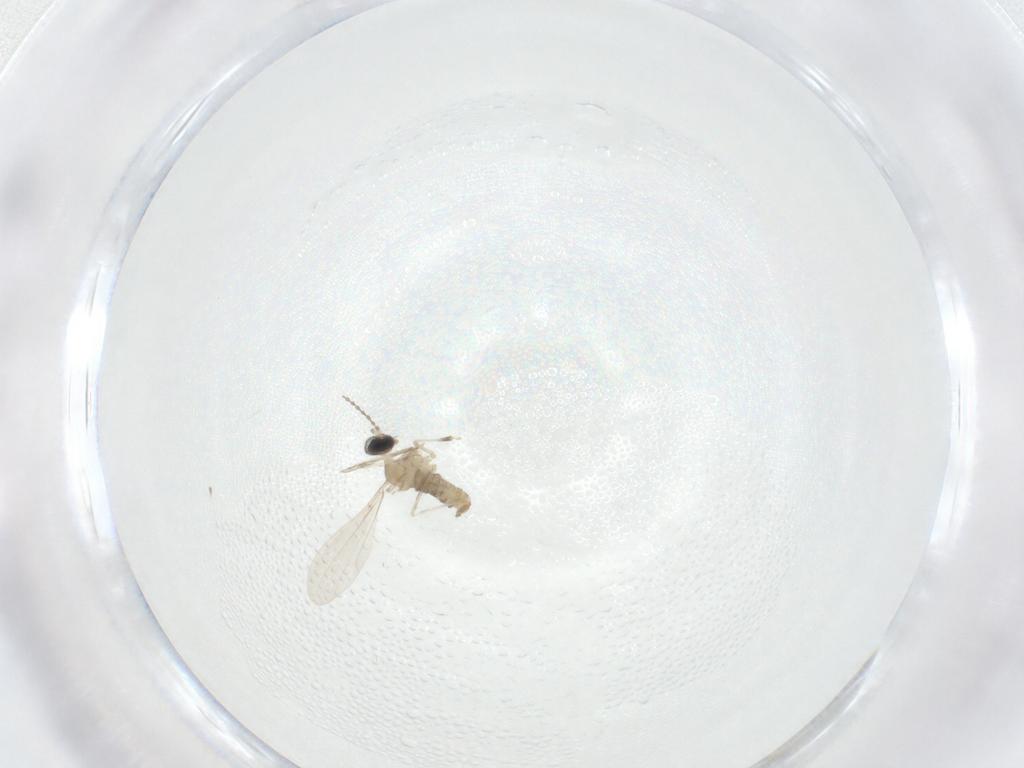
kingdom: Animalia
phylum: Arthropoda
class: Insecta
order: Diptera
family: Cecidomyiidae
